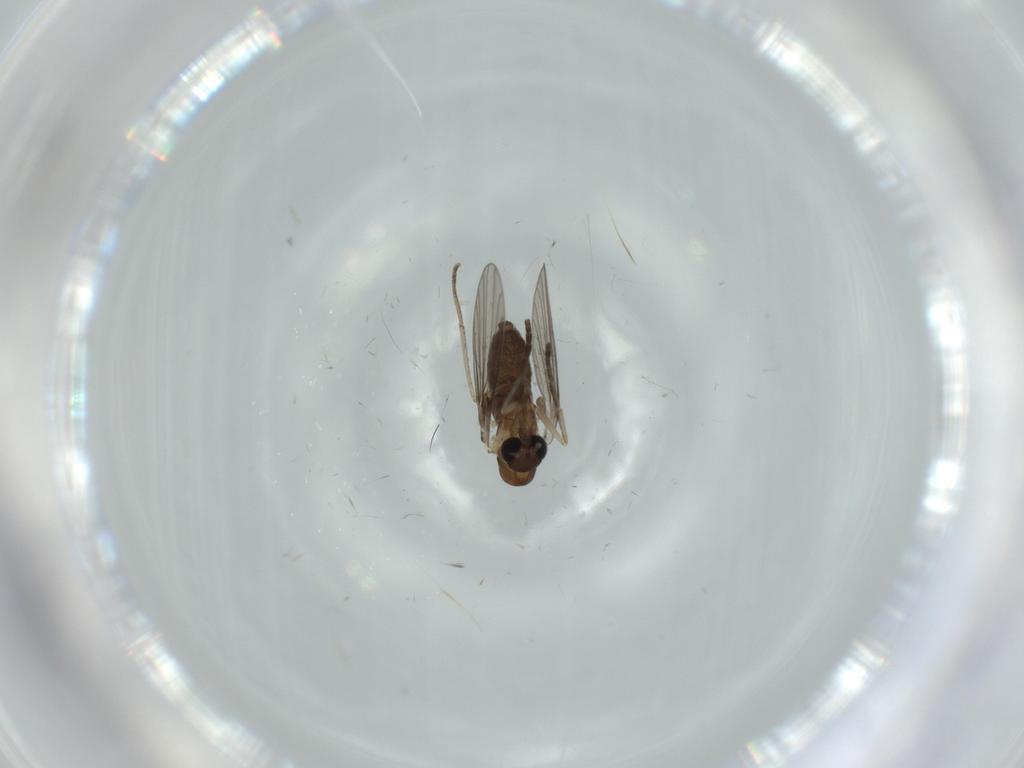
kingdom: Animalia
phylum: Arthropoda
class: Insecta
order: Diptera
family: Psychodidae
